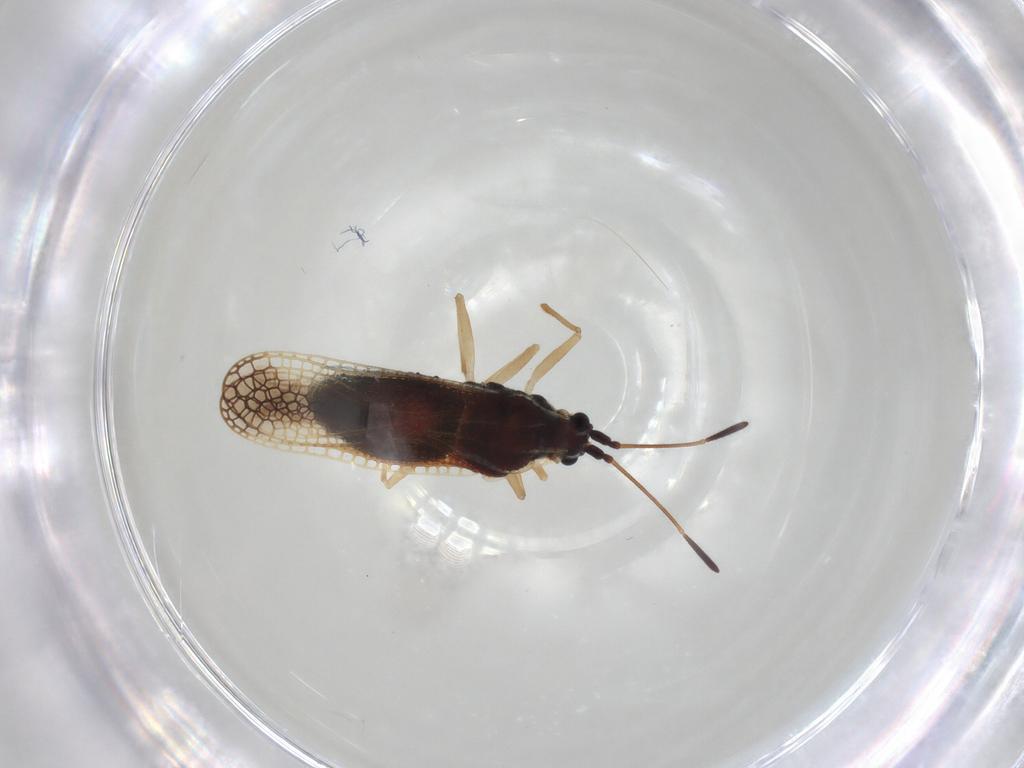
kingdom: Animalia
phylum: Arthropoda
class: Insecta
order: Hemiptera
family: Tingidae
